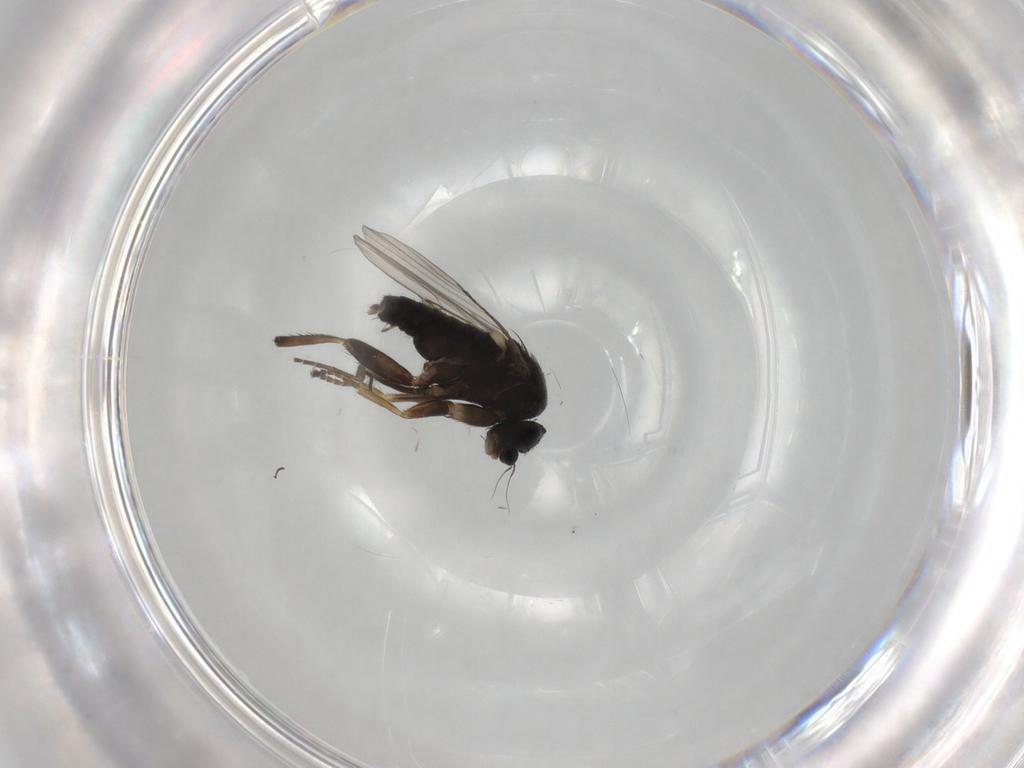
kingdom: Animalia
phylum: Arthropoda
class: Insecta
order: Diptera
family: Phoridae
